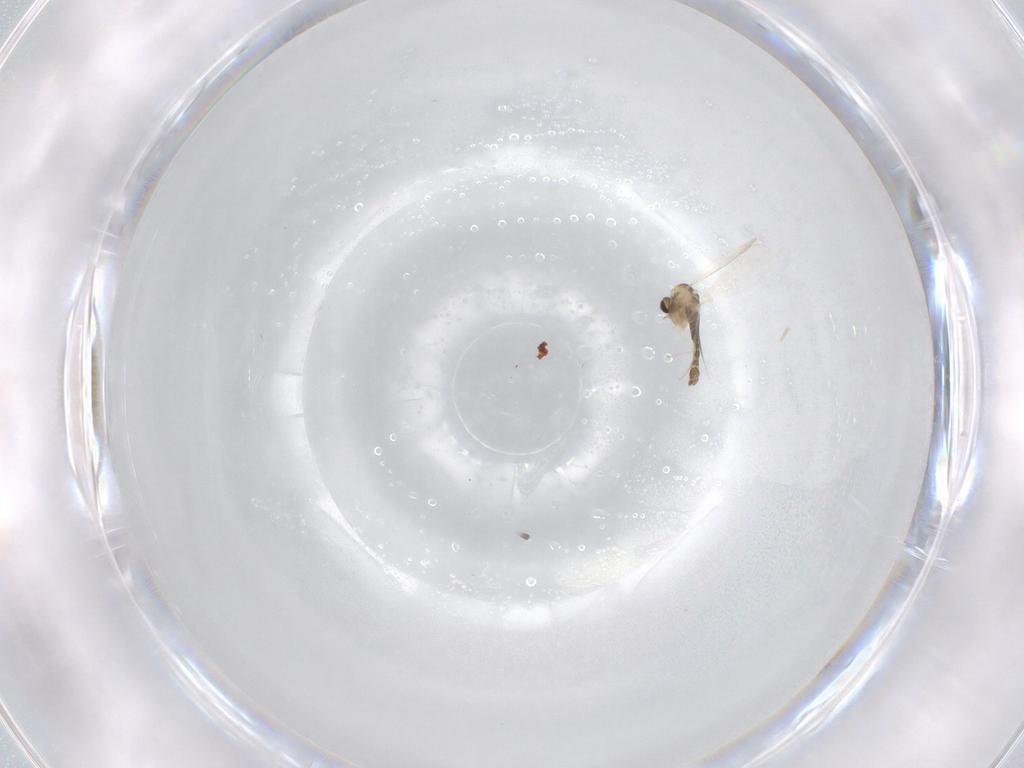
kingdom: Animalia
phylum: Arthropoda
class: Insecta
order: Diptera
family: Chironomidae
